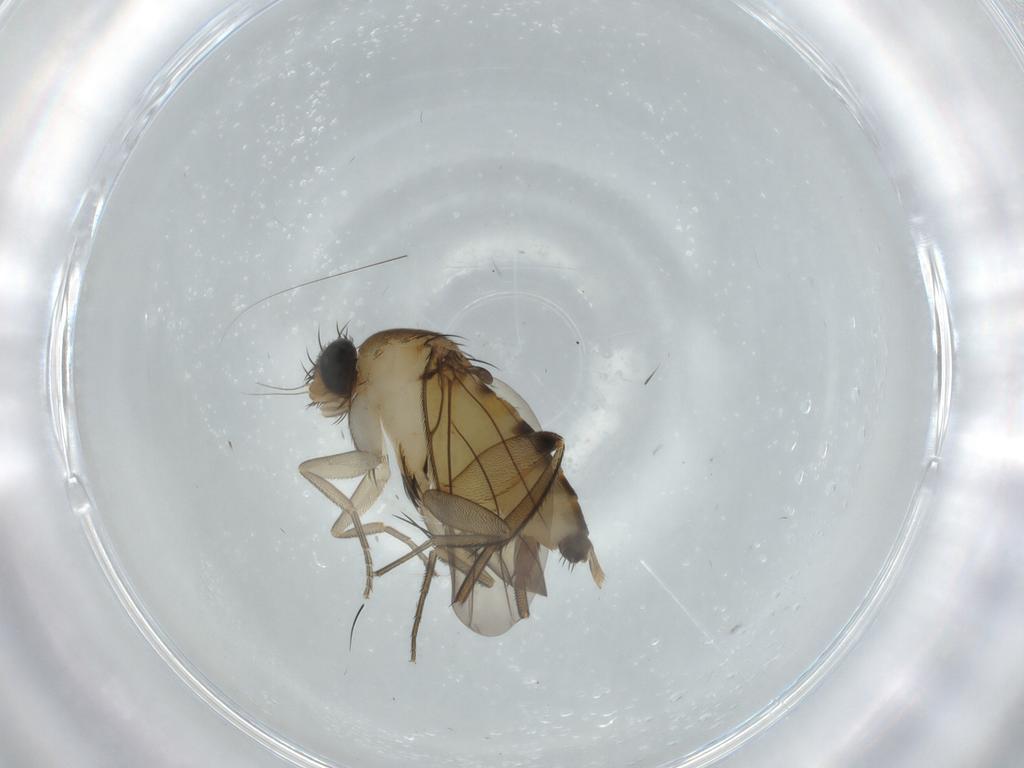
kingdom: Animalia
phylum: Arthropoda
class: Insecta
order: Diptera
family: Phoridae
